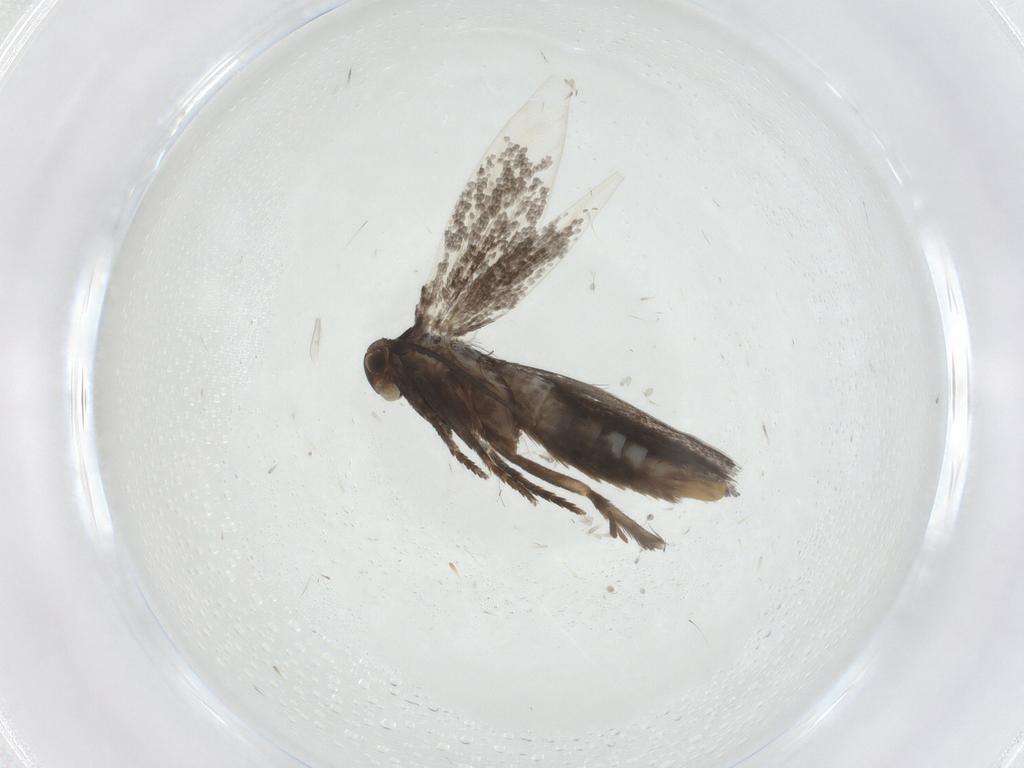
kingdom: Animalia
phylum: Arthropoda
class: Insecta
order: Lepidoptera
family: Elachistidae
